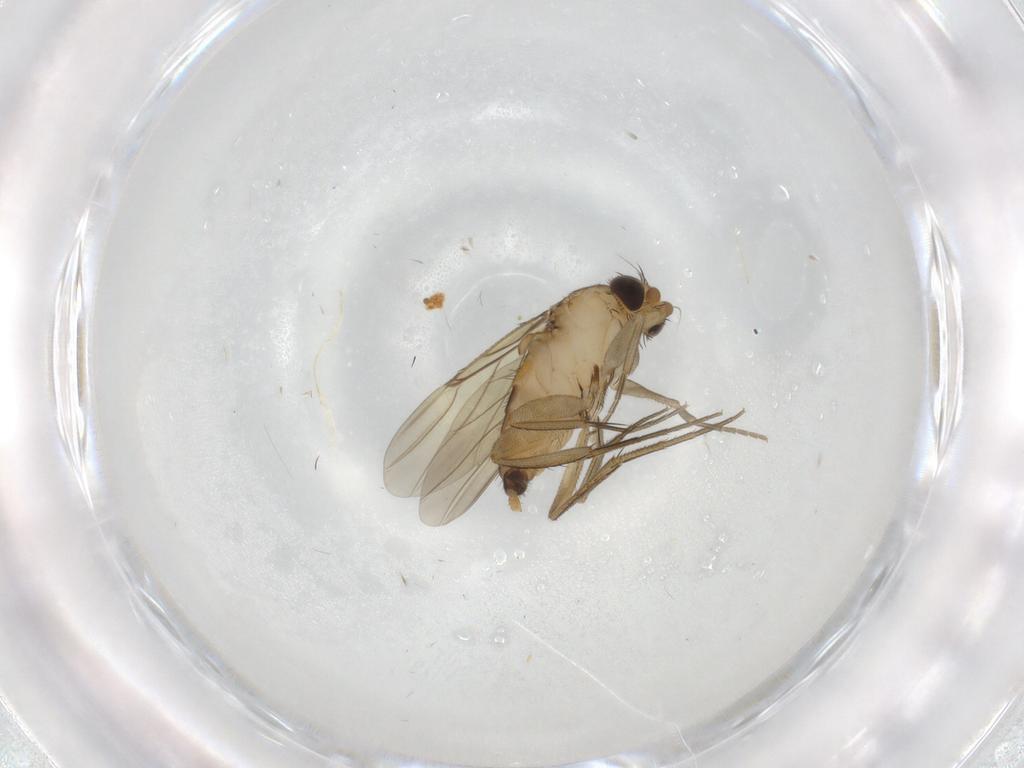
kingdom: Animalia
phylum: Arthropoda
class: Insecta
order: Diptera
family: Phoridae
